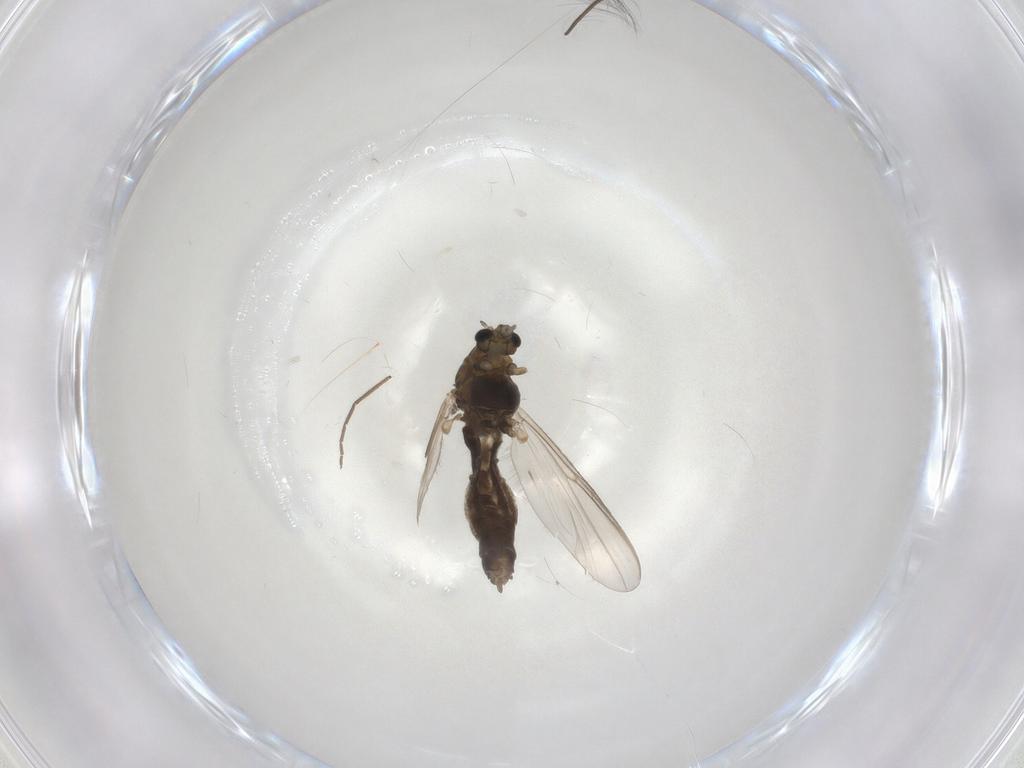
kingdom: Animalia
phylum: Arthropoda
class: Insecta
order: Diptera
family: Chironomidae
